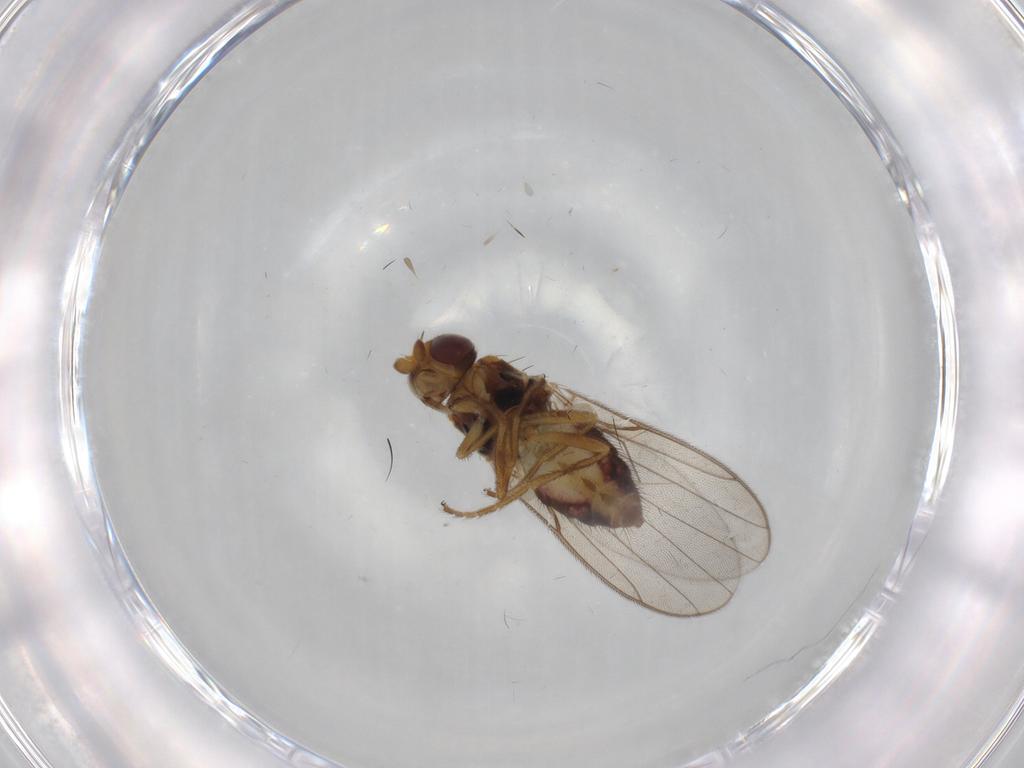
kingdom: Animalia
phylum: Arthropoda
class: Insecta
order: Diptera
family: Chloropidae
